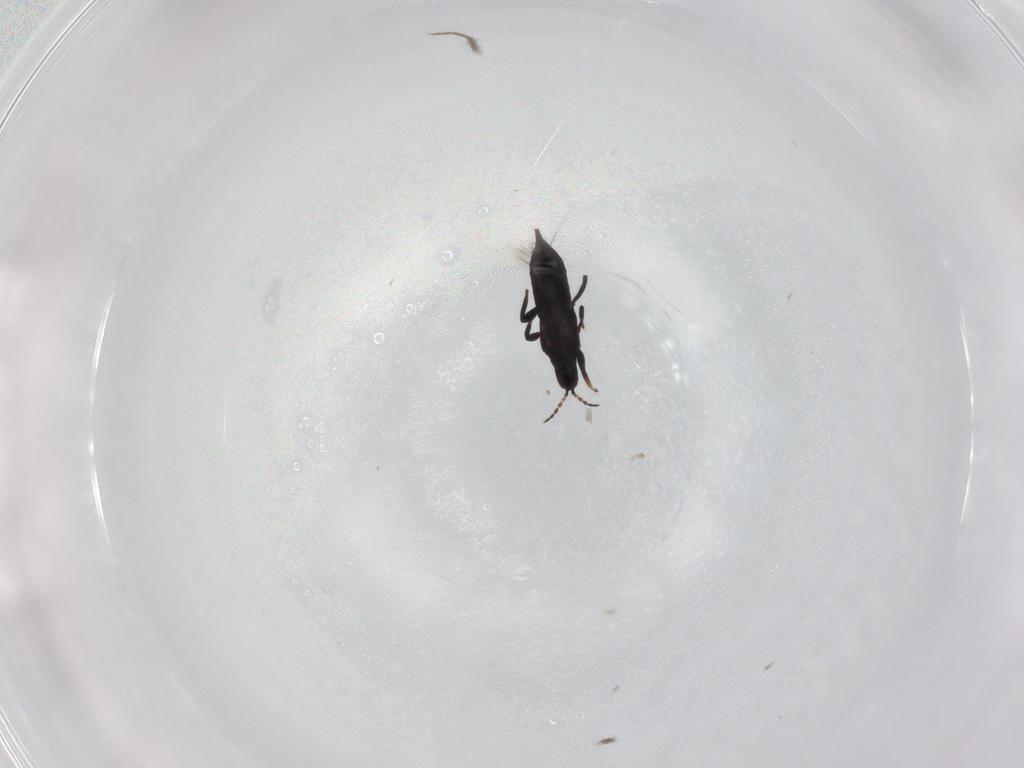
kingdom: Animalia
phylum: Arthropoda
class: Insecta
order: Thysanoptera
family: Phlaeothripidae
